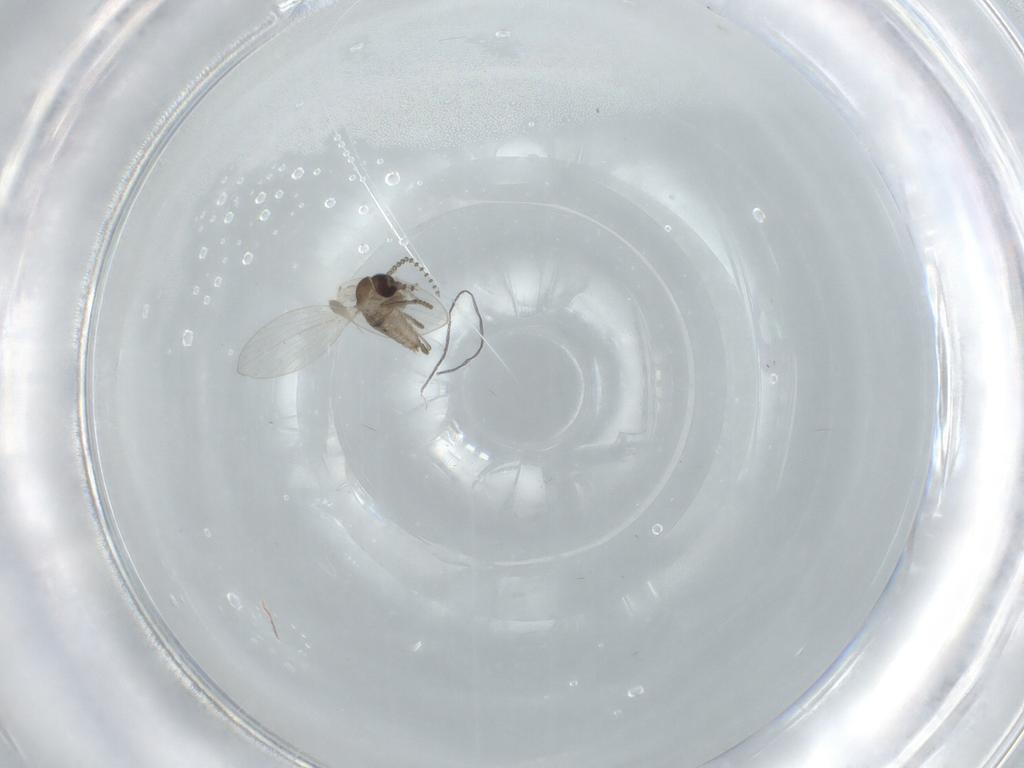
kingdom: Animalia
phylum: Arthropoda
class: Insecta
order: Diptera
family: Psychodidae
